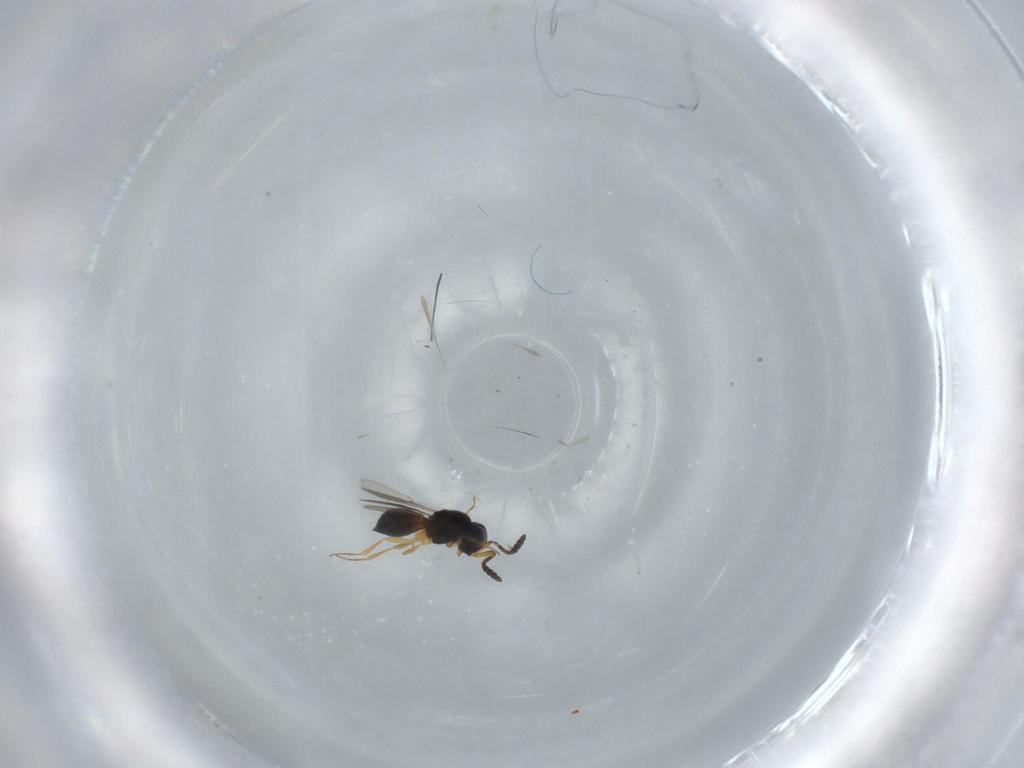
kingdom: Animalia
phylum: Arthropoda
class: Insecta
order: Hymenoptera
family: Scelionidae
